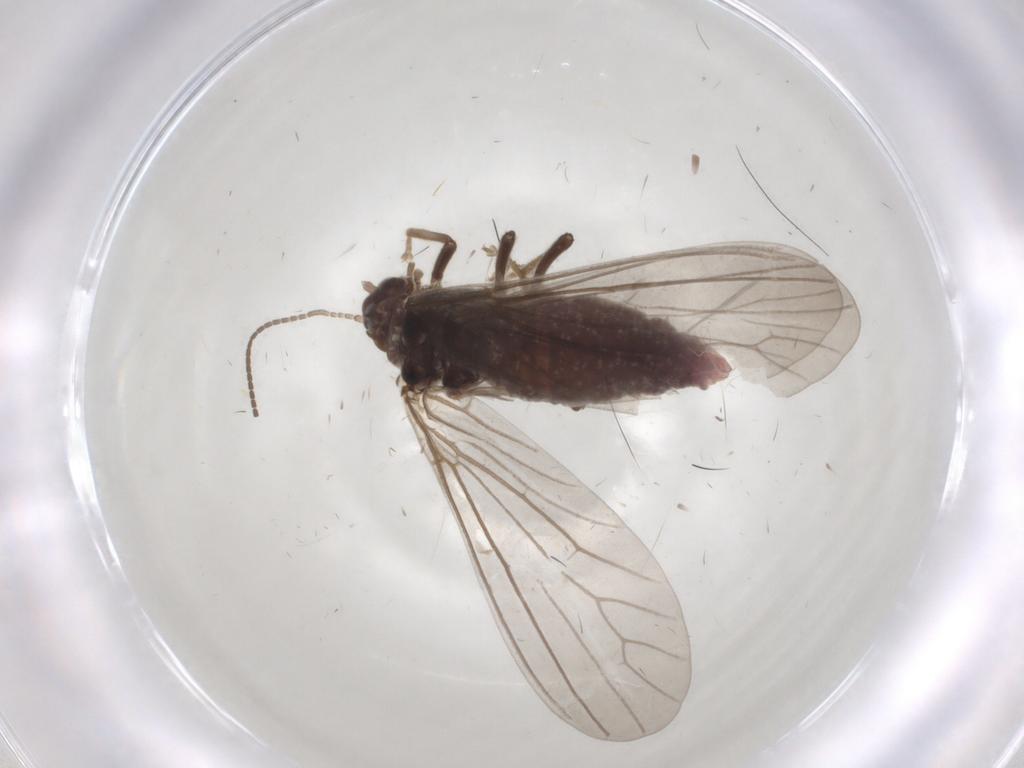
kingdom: Animalia
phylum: Arthropoda
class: Insecta
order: Neuroptera
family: Coniopterygidae
